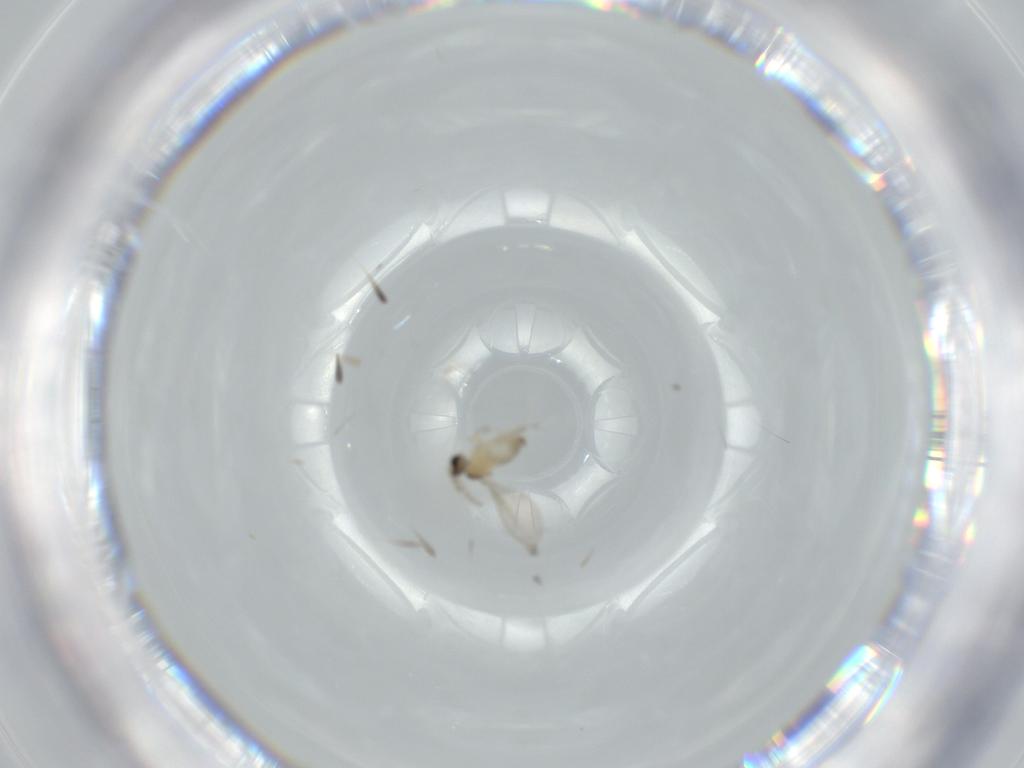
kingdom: Animalia
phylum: Arthropoda
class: Insecta
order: Diptera
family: Cecidomyiidae
